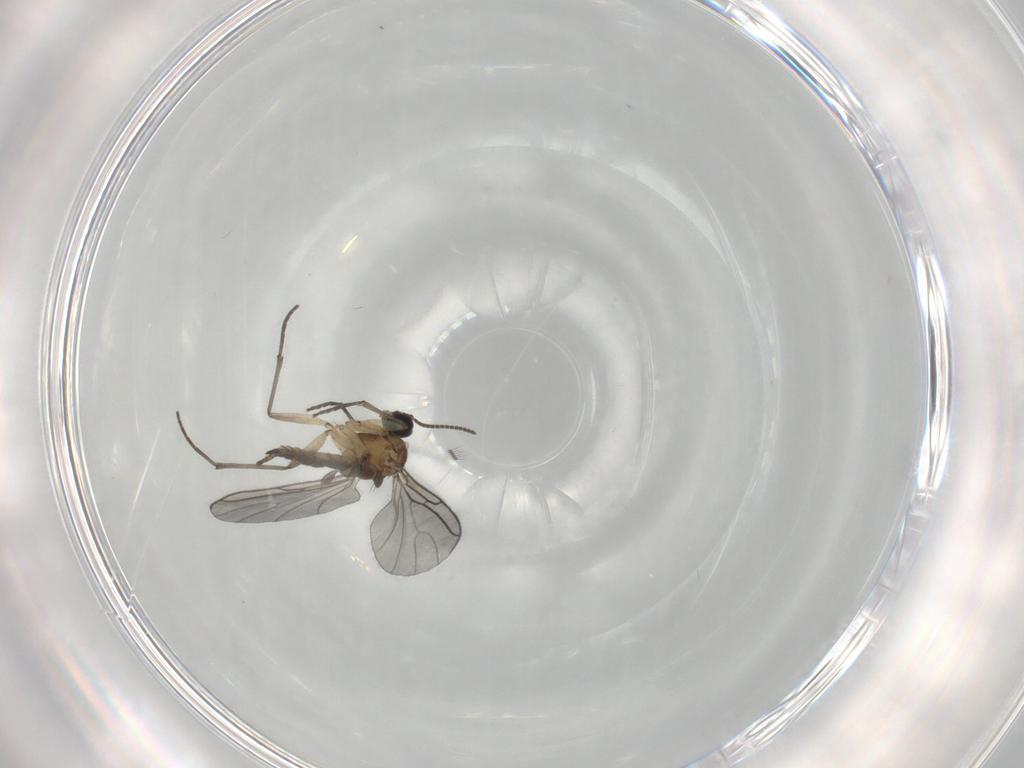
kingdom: Animalia
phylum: Arthropoda
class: Insecta
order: Diptera
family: Sciaridae
